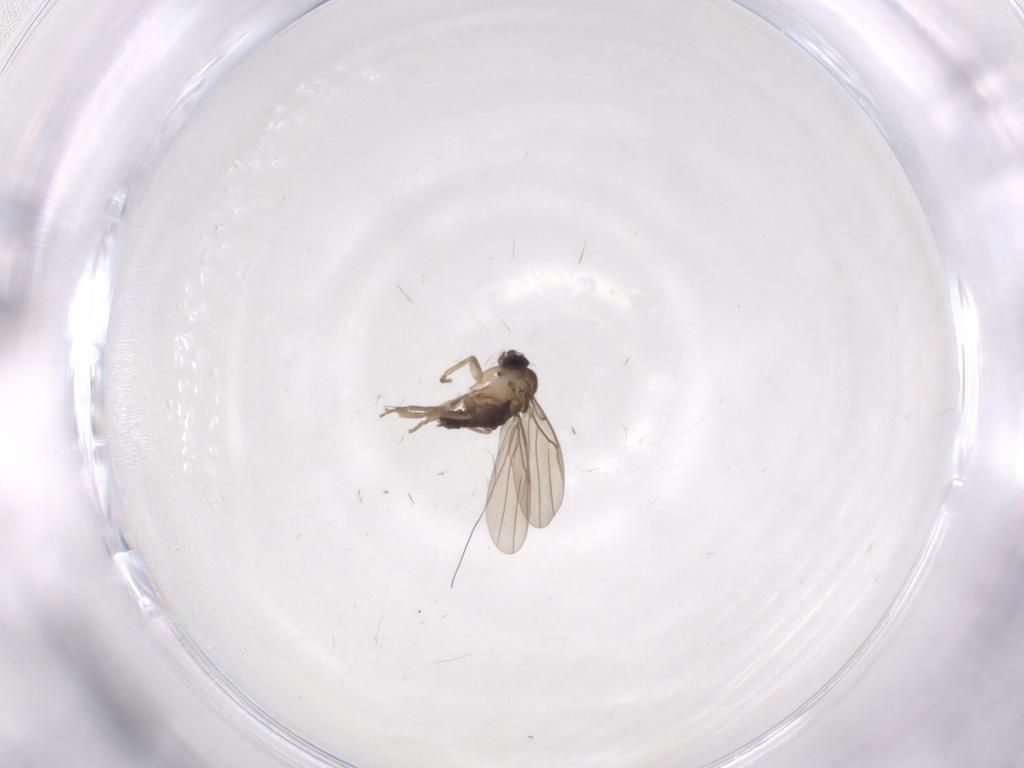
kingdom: Animalia
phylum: Arthropoda
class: Insecta
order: Diptera
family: Phoridae
